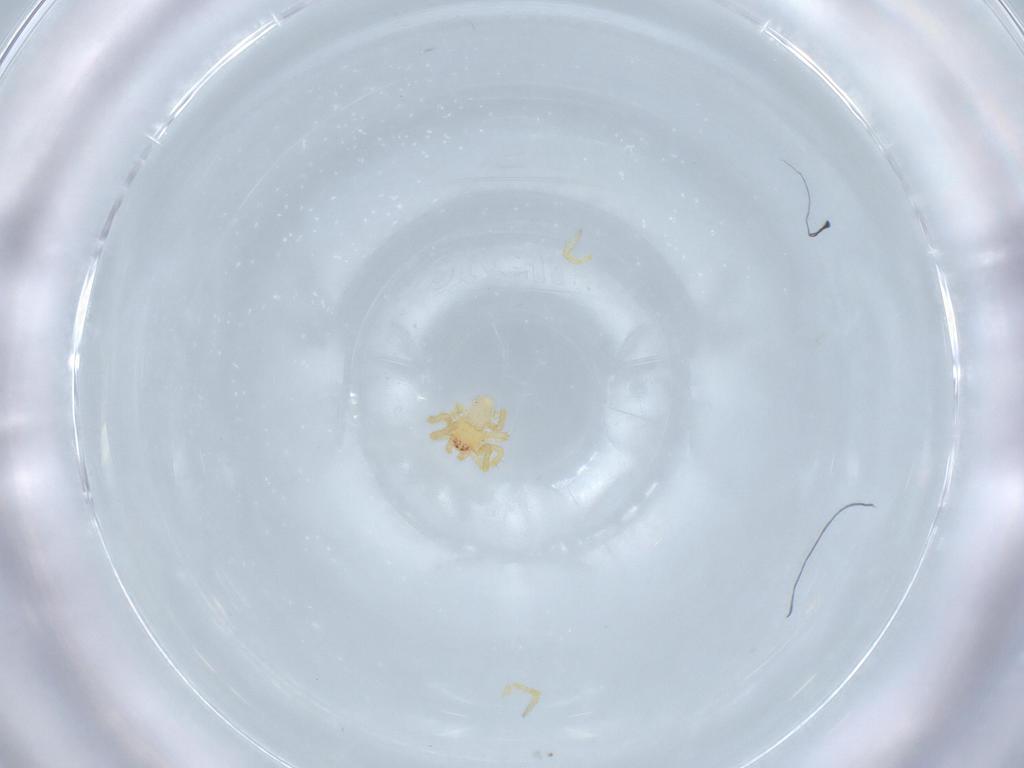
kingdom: Animalia
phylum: Arthropoda
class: Arachnida
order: Araneae
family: Theridiidae
